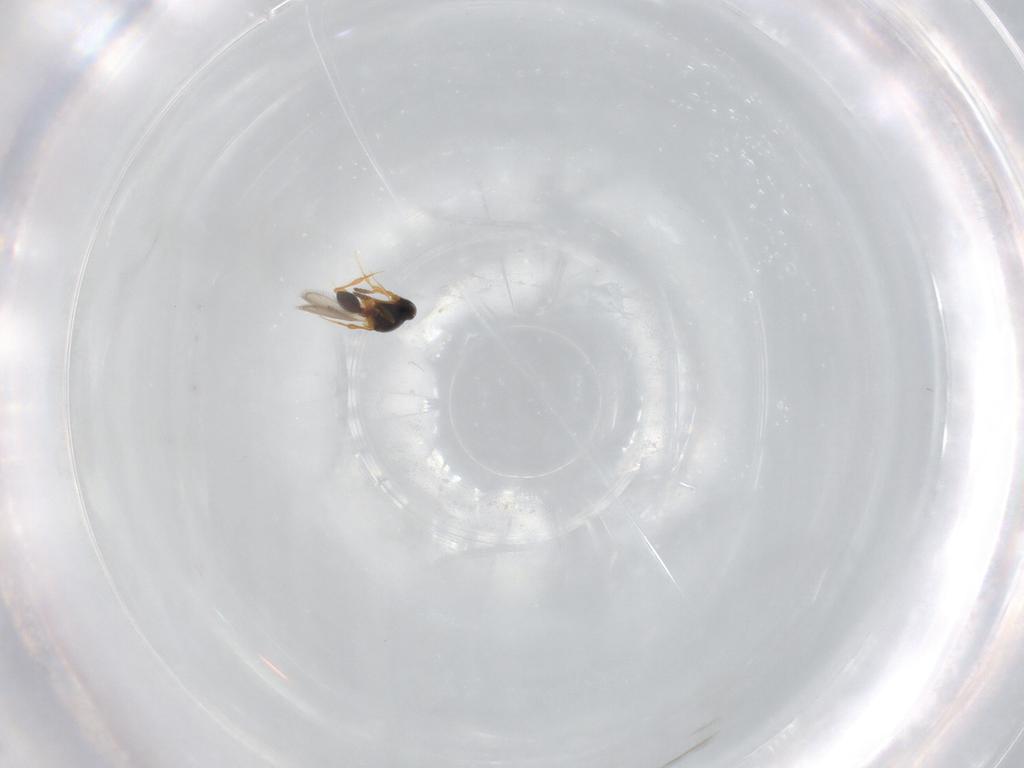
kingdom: Animalia
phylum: Arthropoda
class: Insecta
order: Hymenoptera
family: Platygastridae
